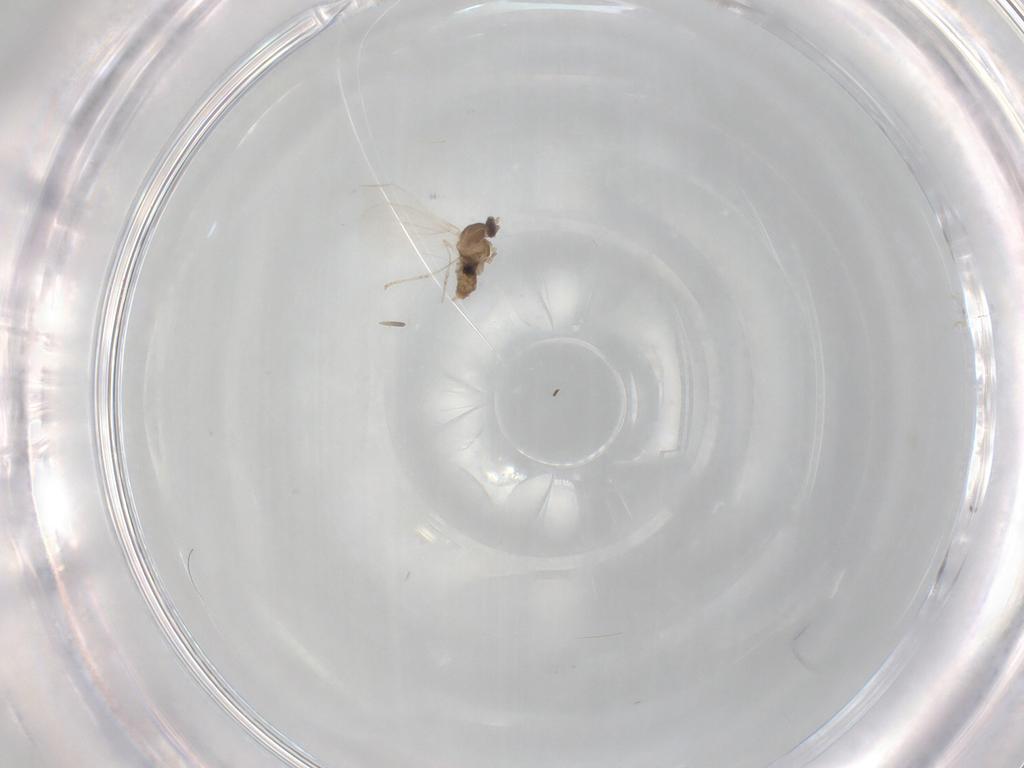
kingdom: Animalia
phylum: Arthropoda
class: Insecta
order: Diptera
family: Cecidomyiidae
